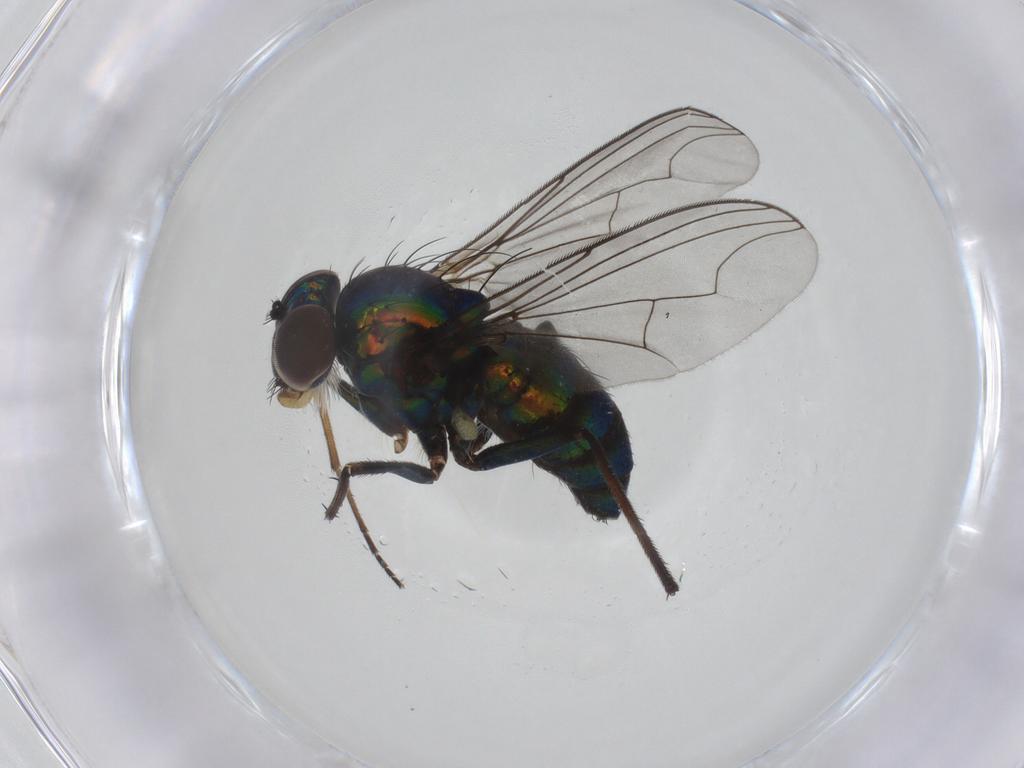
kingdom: Animalia
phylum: Arthropoda
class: Insecta
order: Diptera
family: Dolichopodidae
